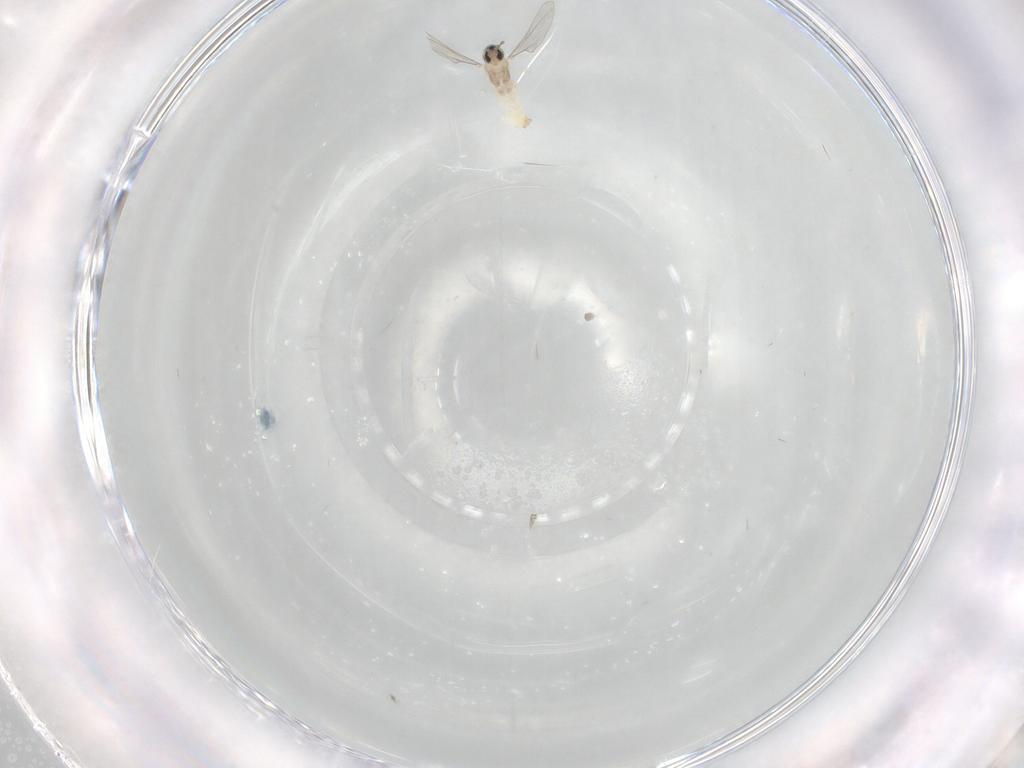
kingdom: Animalia
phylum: Arthropoda
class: Insecta
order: Diptera
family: Cecidomyiidae
